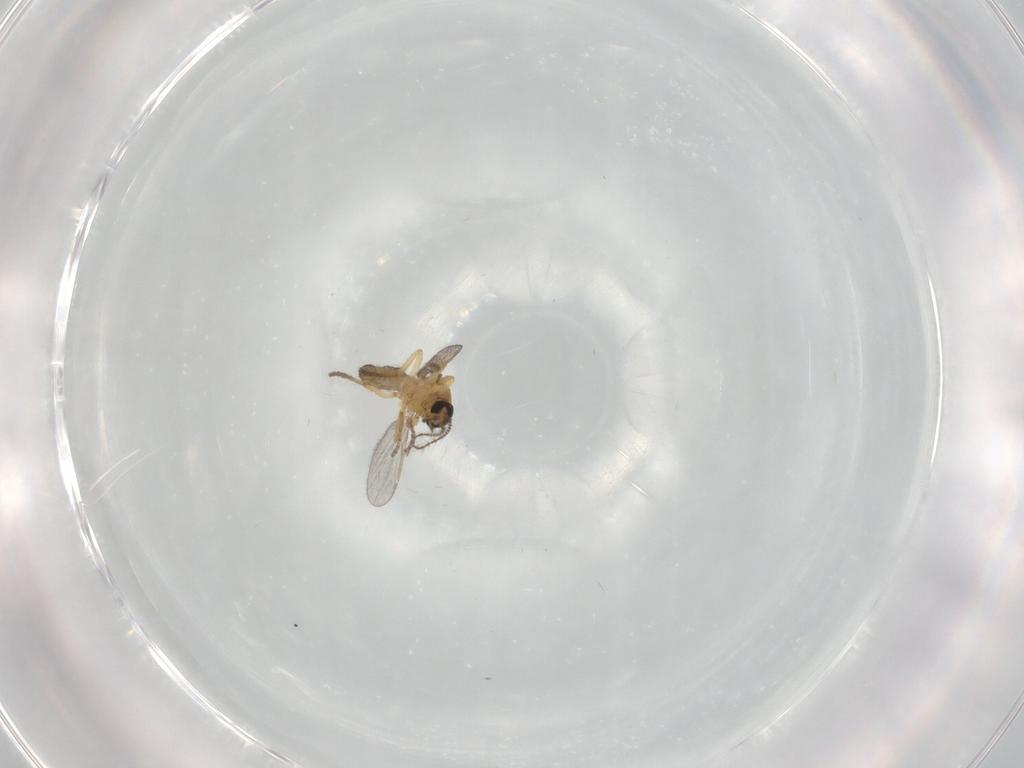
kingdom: Animalia
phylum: Arthropoda
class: Insecta
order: Diptera
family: Ceratopogonidae
